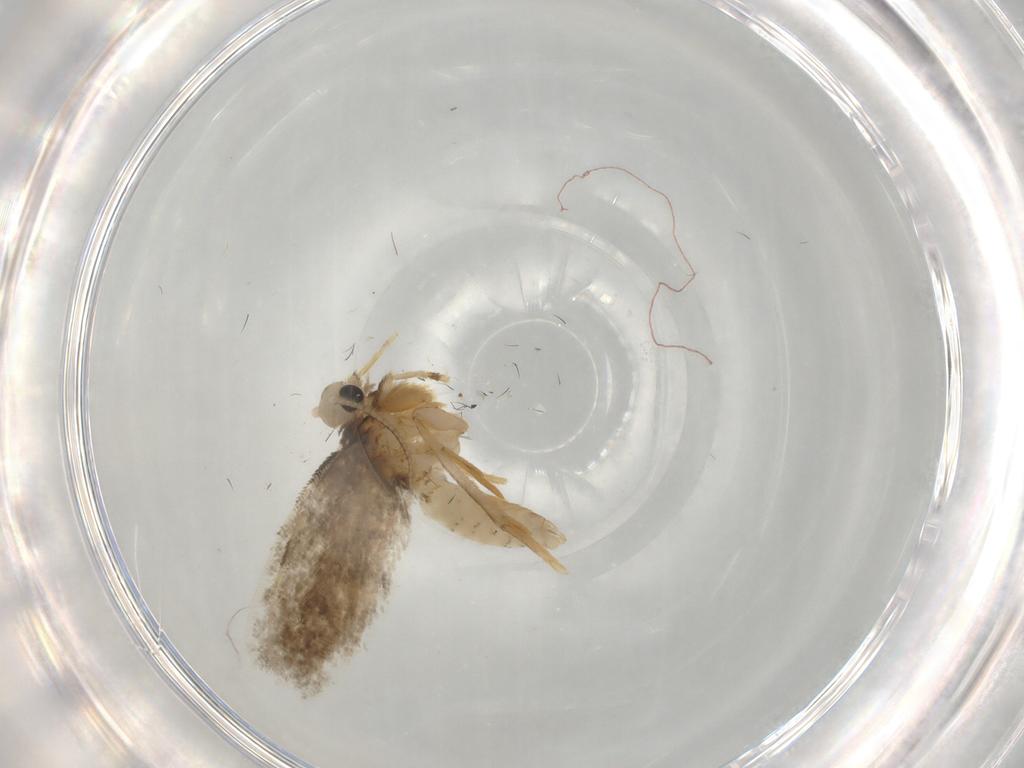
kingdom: Animalia
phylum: Arthropoda
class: Insecta
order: Lepidoptera
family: Psychidae
